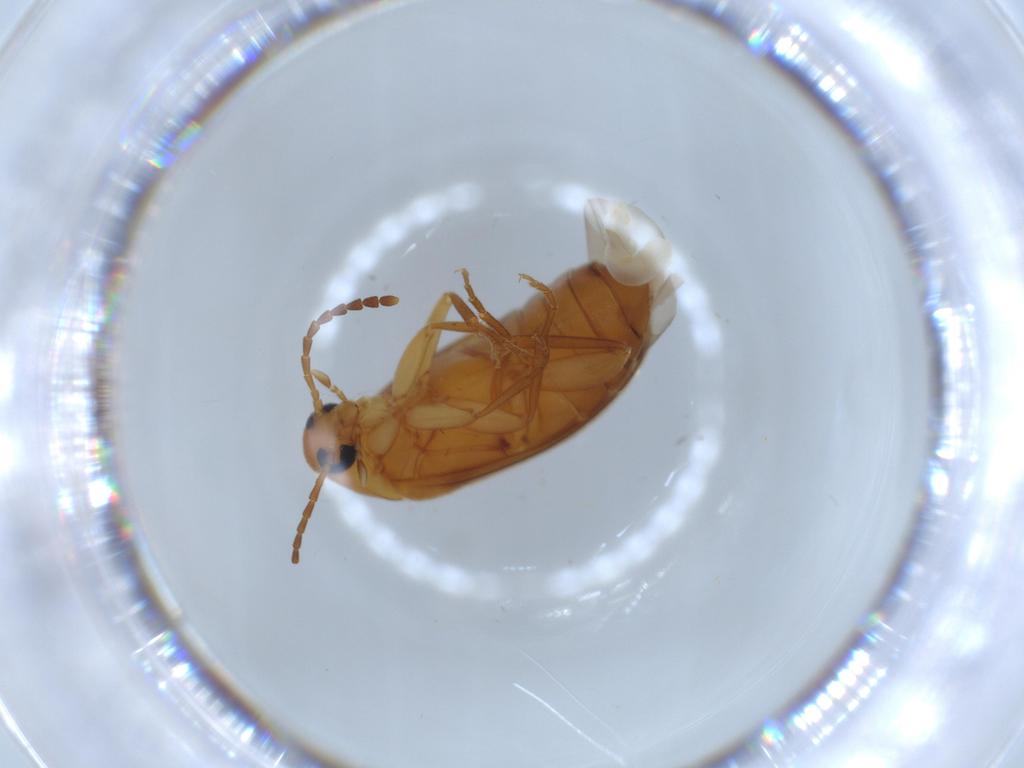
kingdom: Animalia
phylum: Arthropoda
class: Insecta
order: Coleoptera
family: Scraptiidae
